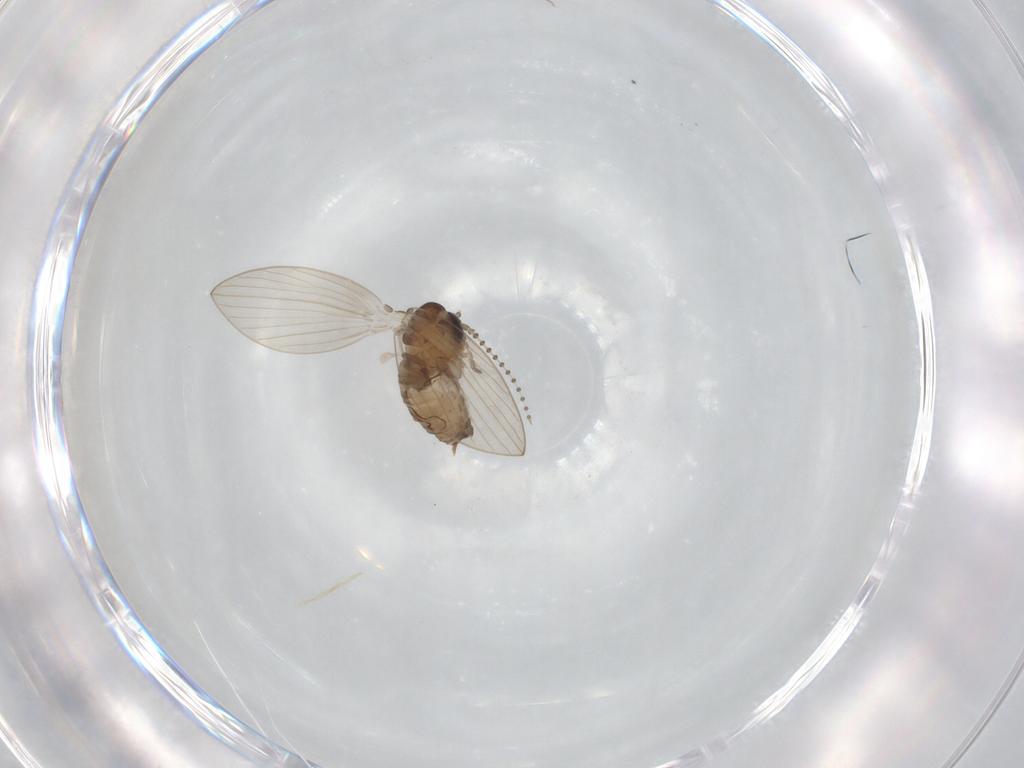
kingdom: Animalia
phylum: Arthropoda
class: Insecta
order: Diptera
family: Psychodidae
